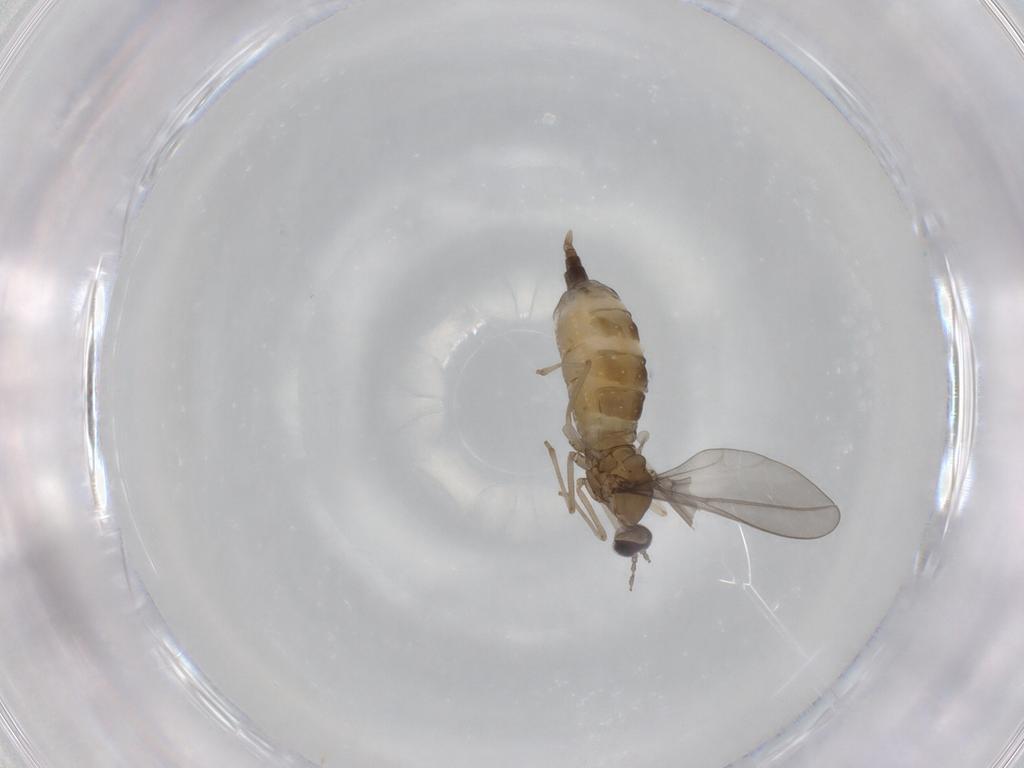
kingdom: Animalia
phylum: Arthropoda
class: Insecta
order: Diptera
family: Cecidomyiidae
